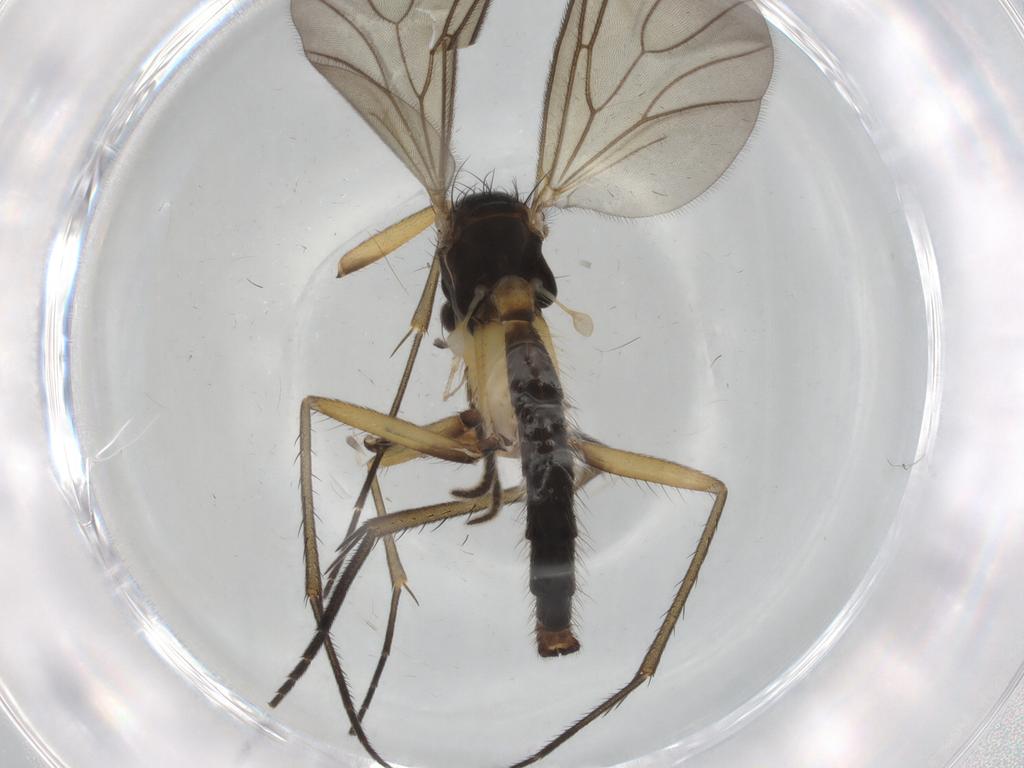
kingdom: Animalia
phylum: Arthropoda
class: Insecta
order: Diptera
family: Mycetophilidae
